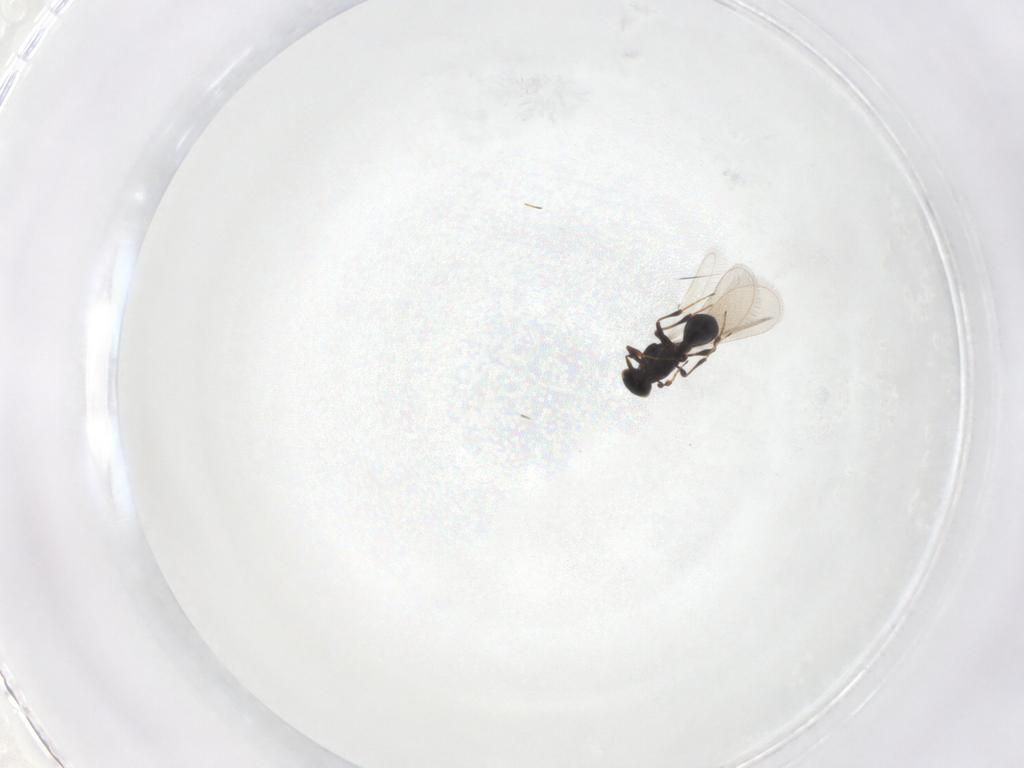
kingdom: Animalia
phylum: Arthropoda
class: Insecta
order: Hymenoptera
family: Platygastridae
